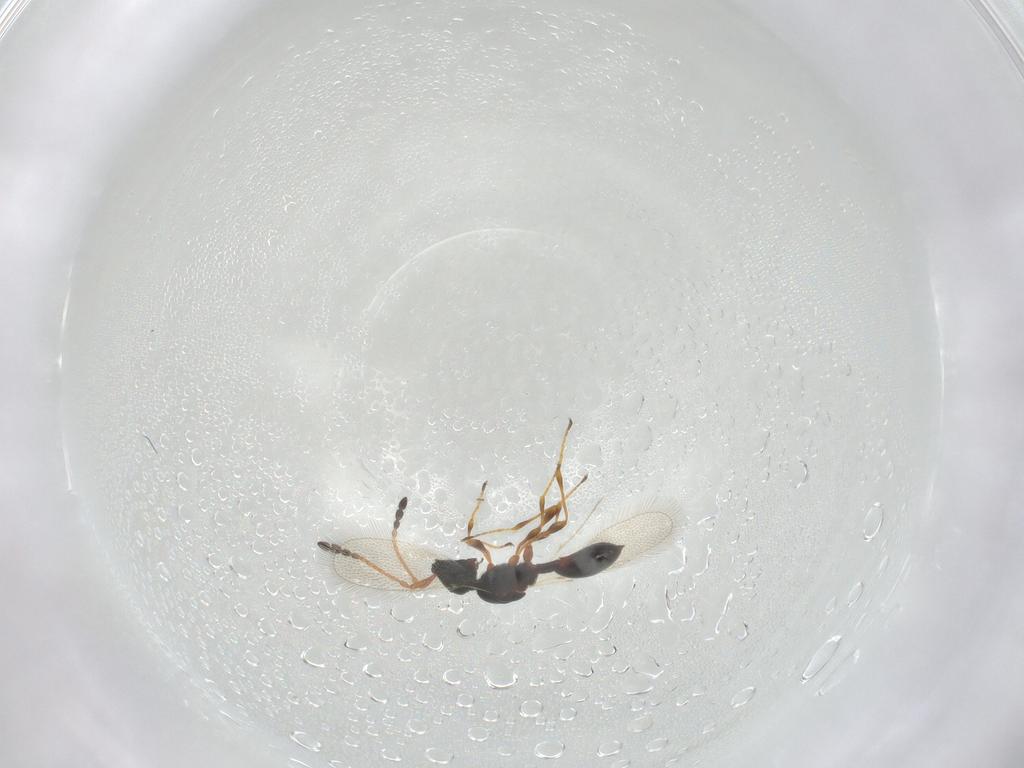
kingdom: Animalia
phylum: Arthropoda
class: Insecta
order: Hymenoptera
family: Diapriidae
